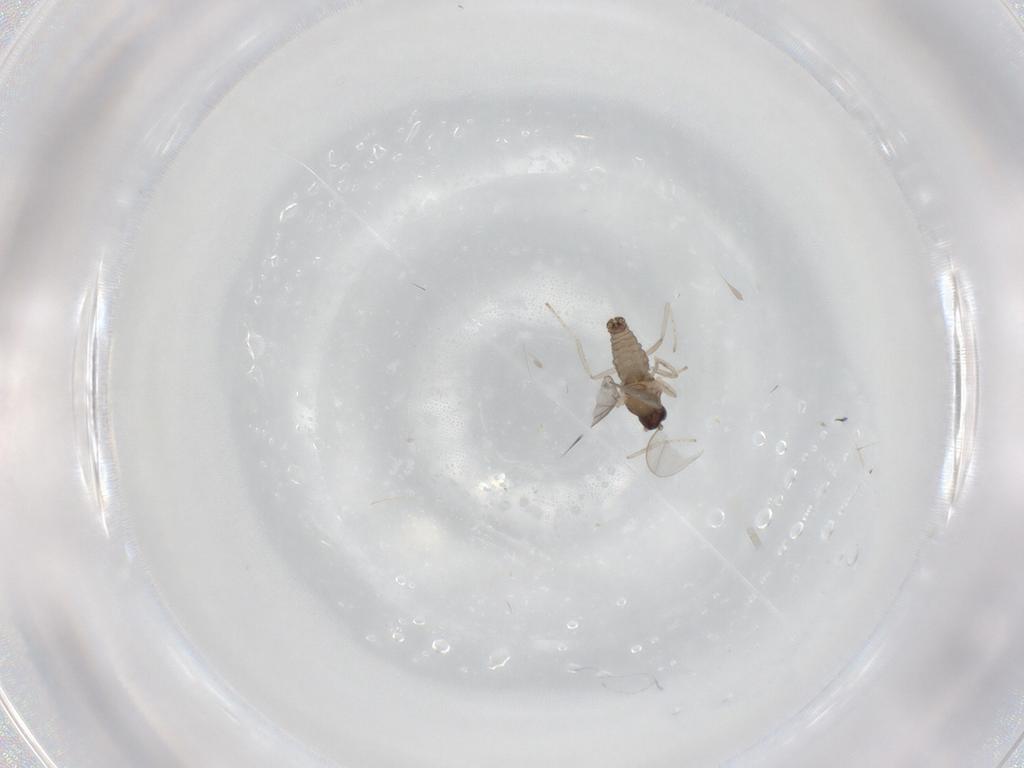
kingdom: Animalia
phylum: Arthropoda
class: Insecta
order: Diptera
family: Cecidomyiidae
